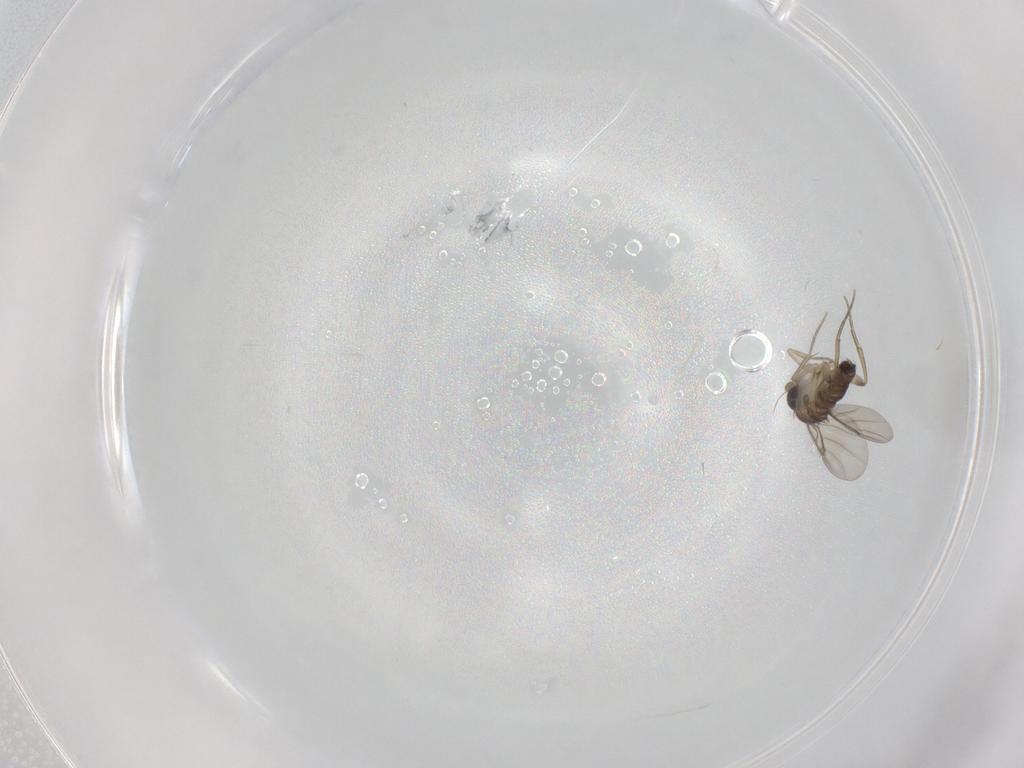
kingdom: Animalia
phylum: Arthropoda
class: Insecta
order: Diptera
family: Phoridae
